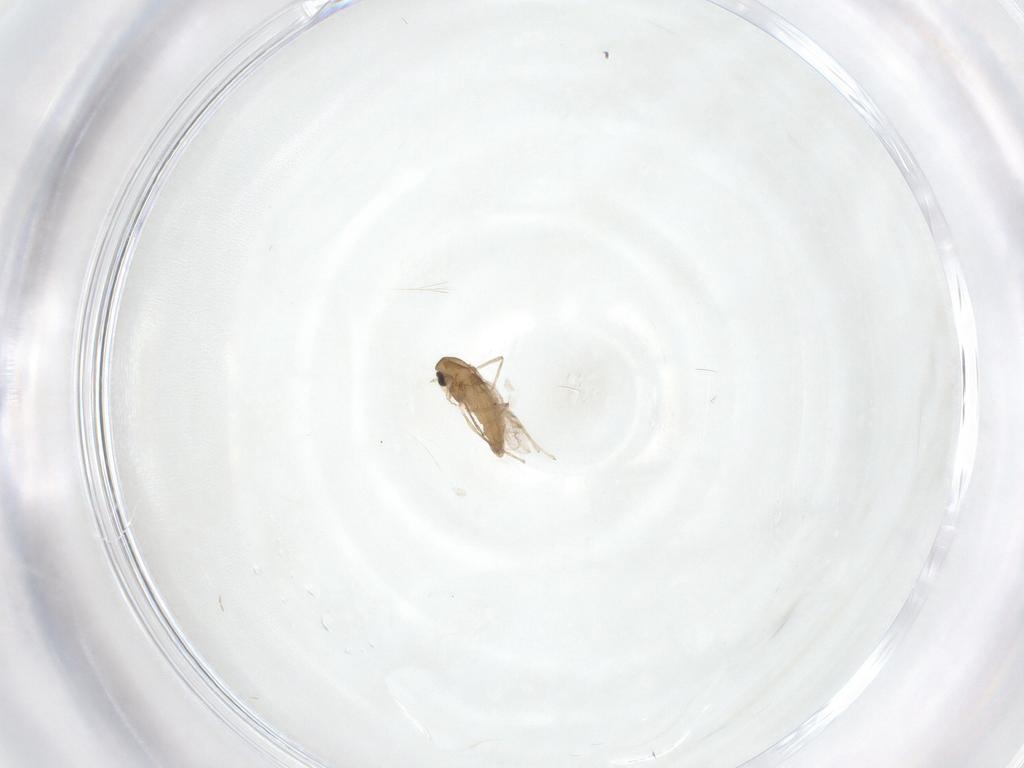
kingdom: Animalia
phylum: Arthropoda
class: Insecta
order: Diptera
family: Chironomidae
